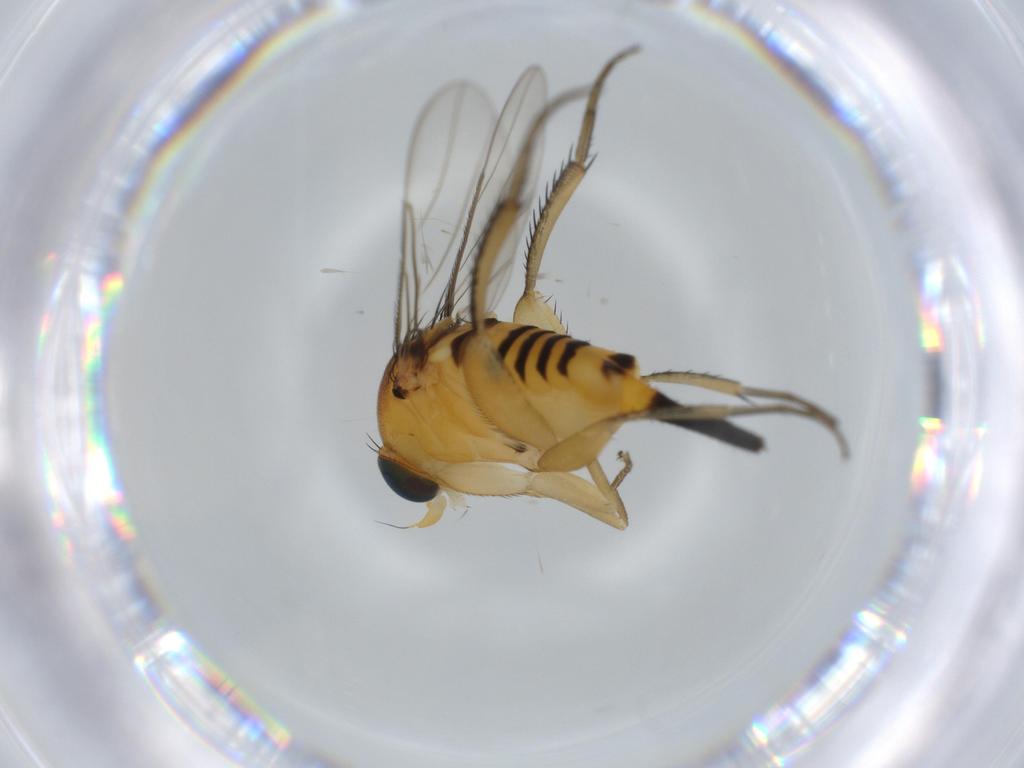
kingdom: Animalia
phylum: Arthropoda
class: Insecta
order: Diptera
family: Phoridae
